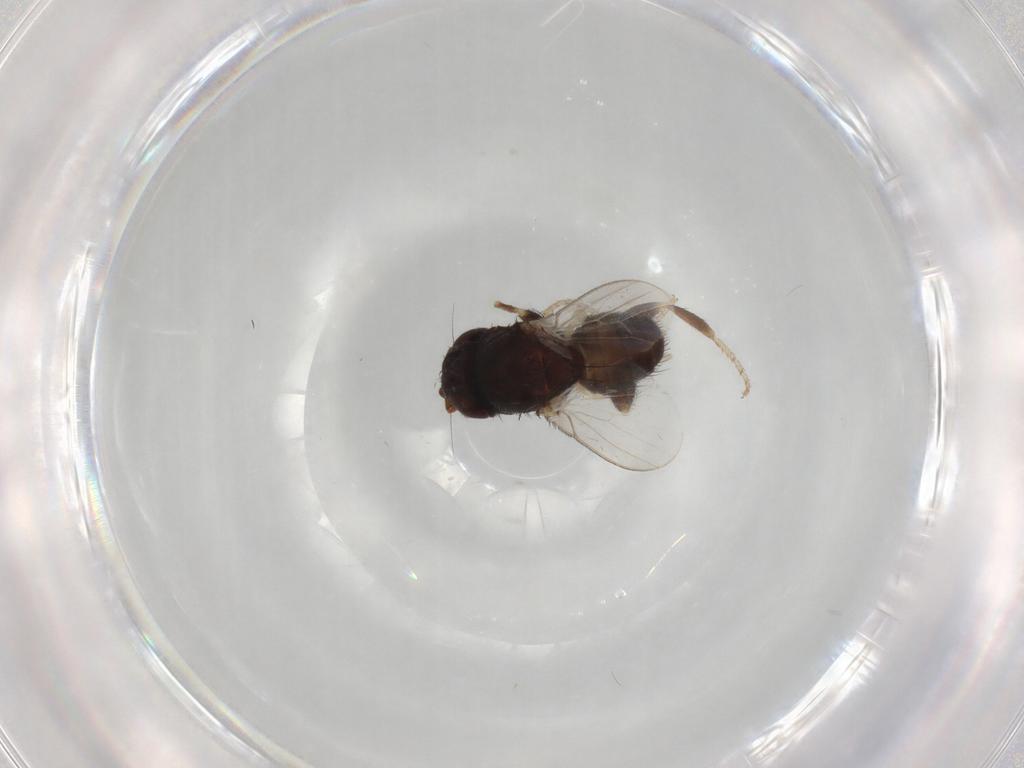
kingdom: Animalia
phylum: Arthropoda
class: Insecta
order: Diptera
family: Milichiidae
